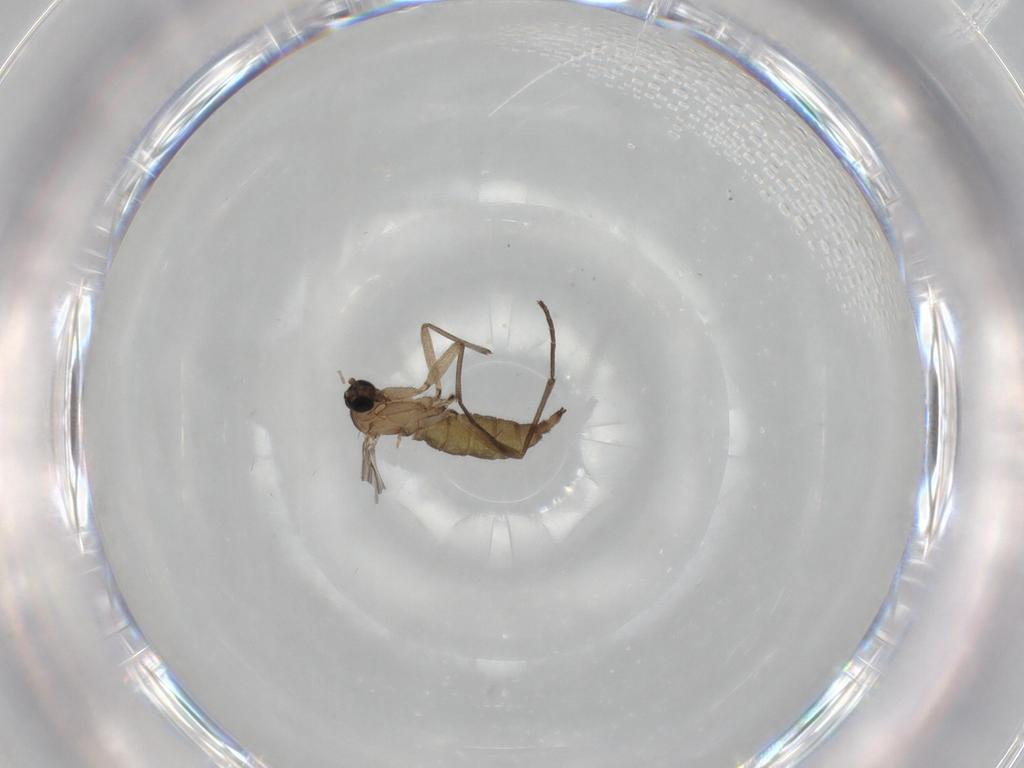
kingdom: Animalia
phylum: Arthropoda
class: Insecta
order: Diptera
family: Sciaridae
